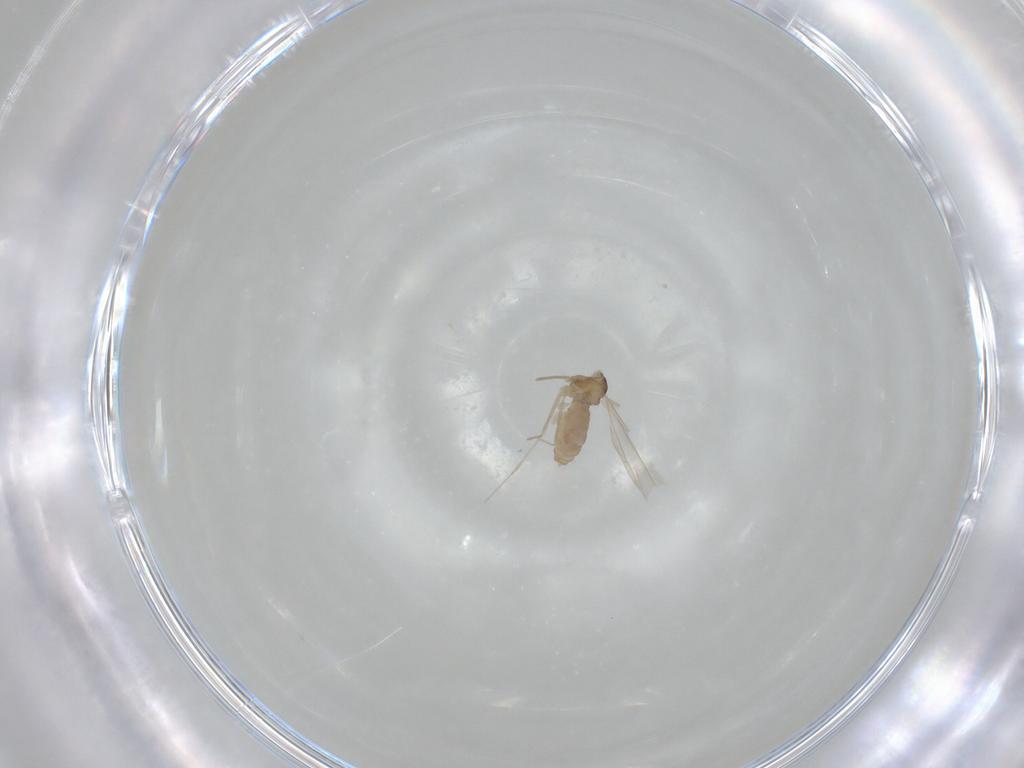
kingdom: Animalia
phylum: Arthropoda
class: Insecta
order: Diptera
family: Cecidomyiidae
